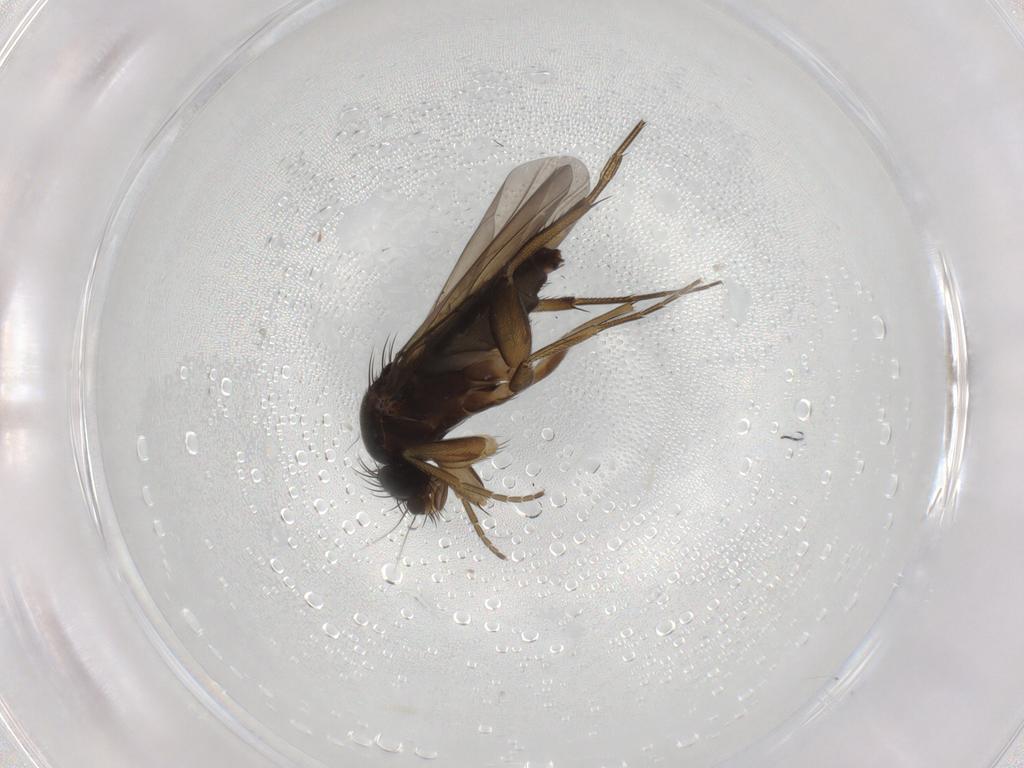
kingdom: Animalia
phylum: Arthropoda
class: Insecta
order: Diptera
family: Phoridae
